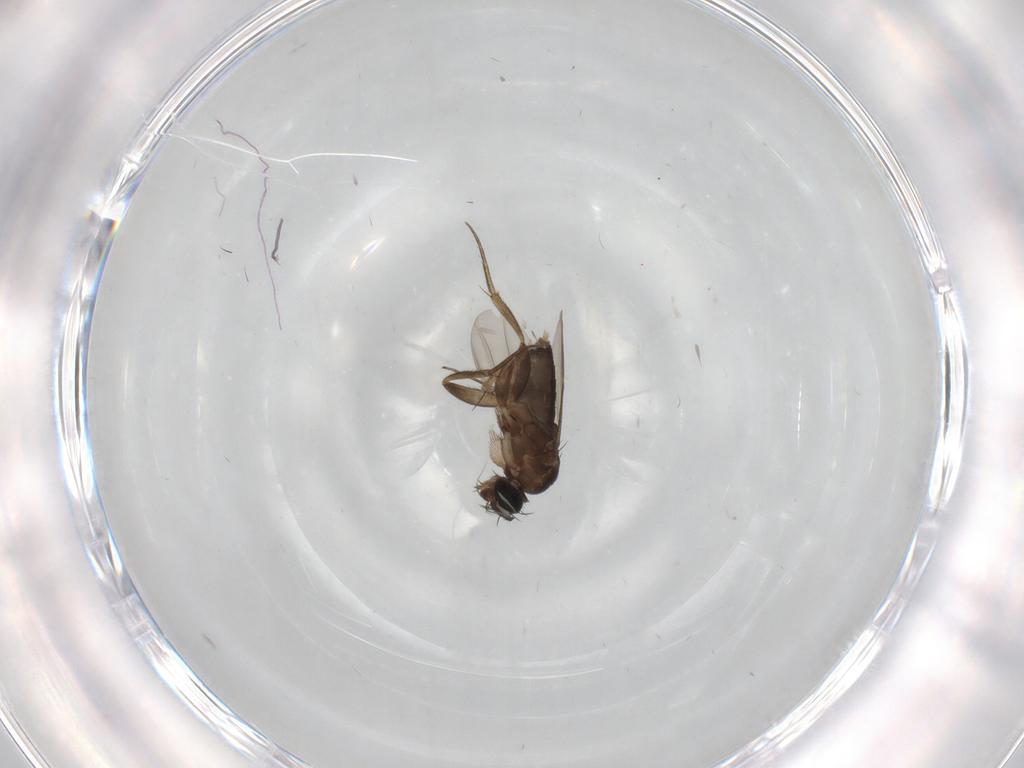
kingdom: Animalia
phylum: Arthropoda
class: Insecta
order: Diptera
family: Phoridae
